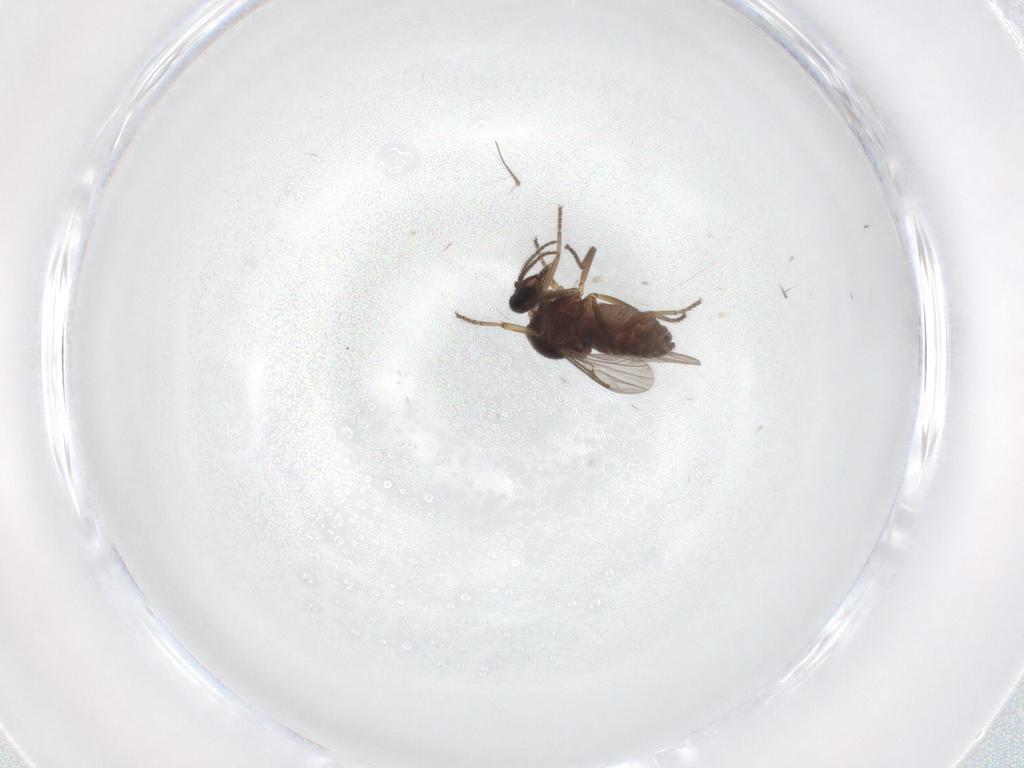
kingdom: Animalia
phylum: Arthropoda
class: Insecta
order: Diptera
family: Ceratopogonidae
